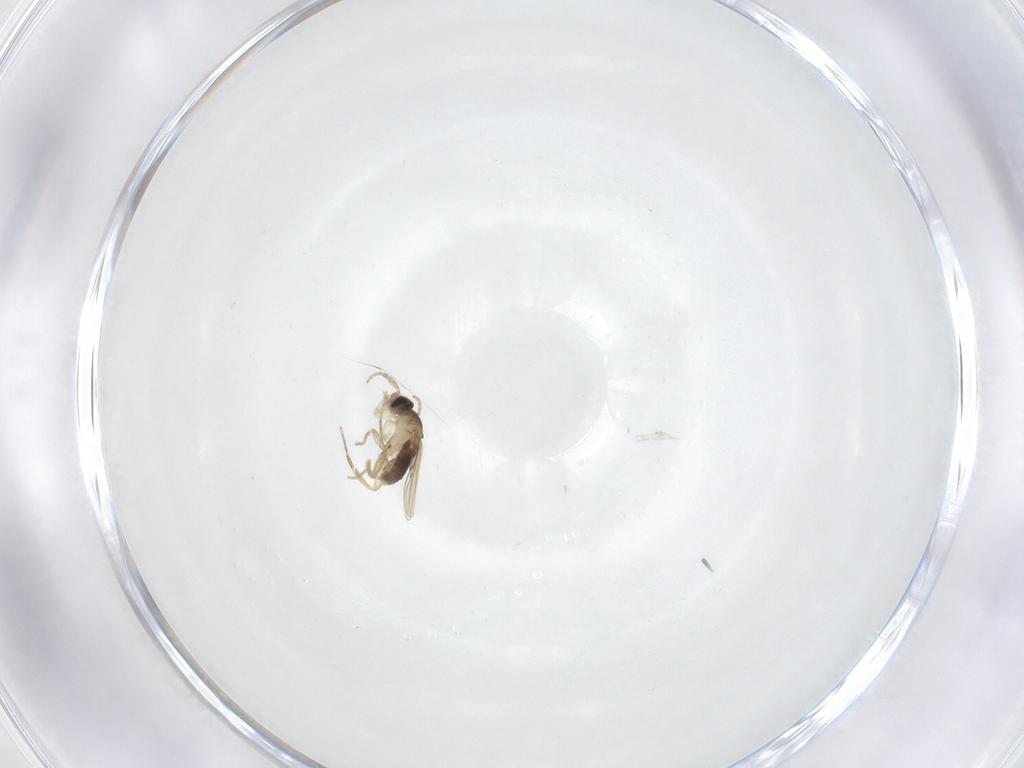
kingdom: Animalia
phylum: Arthropoda
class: Insecta
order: Diptera
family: Phoridae
